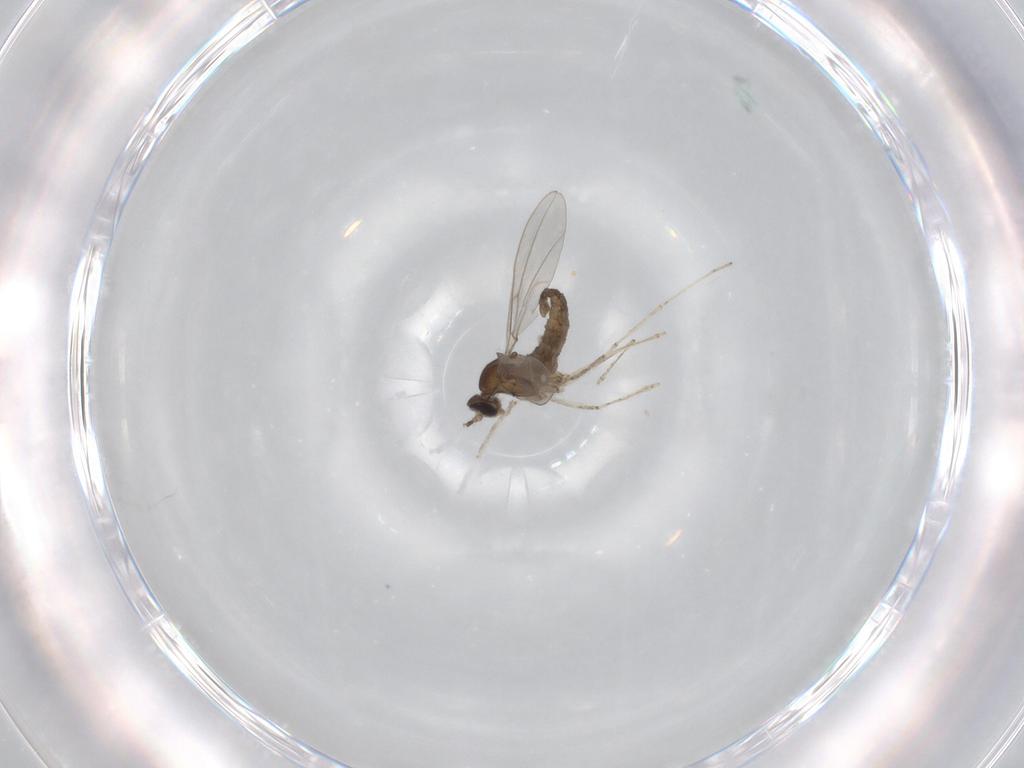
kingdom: Animalia
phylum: Arthropoda
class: Insecta
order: Diptera
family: Cecidomyiidae
